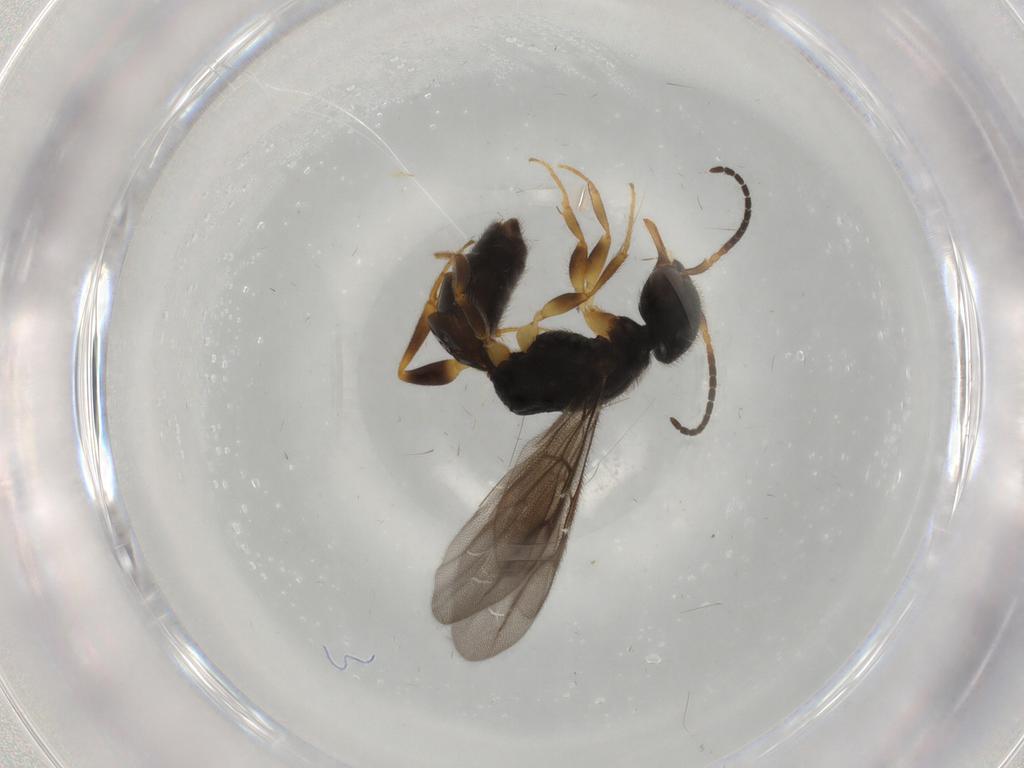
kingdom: Animalia
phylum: Arthropoda
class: Insecta
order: Hymenoptera
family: Bethylidae
